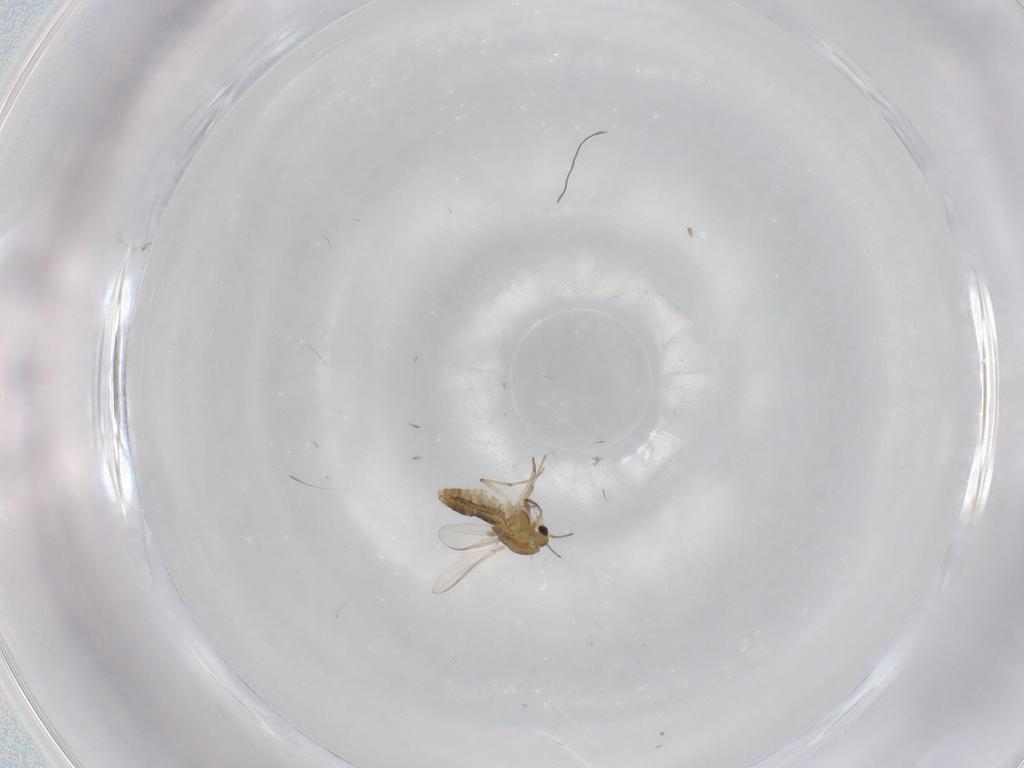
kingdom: Animalia
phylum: Arthropoda
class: Insecta
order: Diptera
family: Chironomidae
